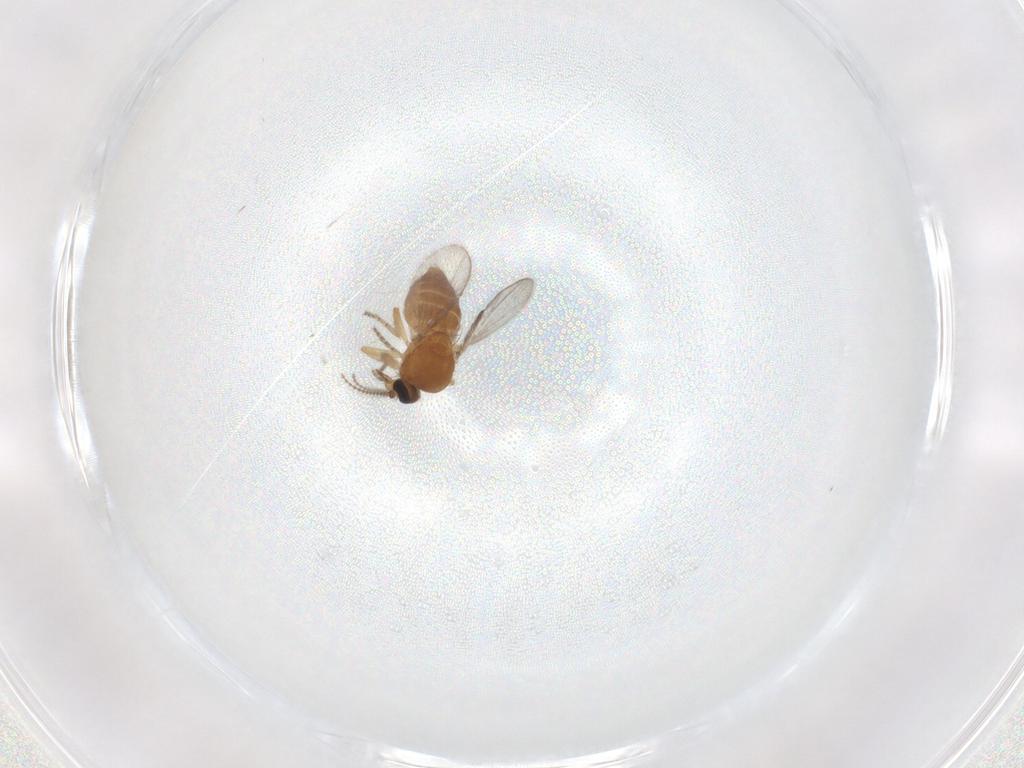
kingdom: Animalia
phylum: Arthropoda
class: Insecta
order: Diptera
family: Ceratopogonidae
